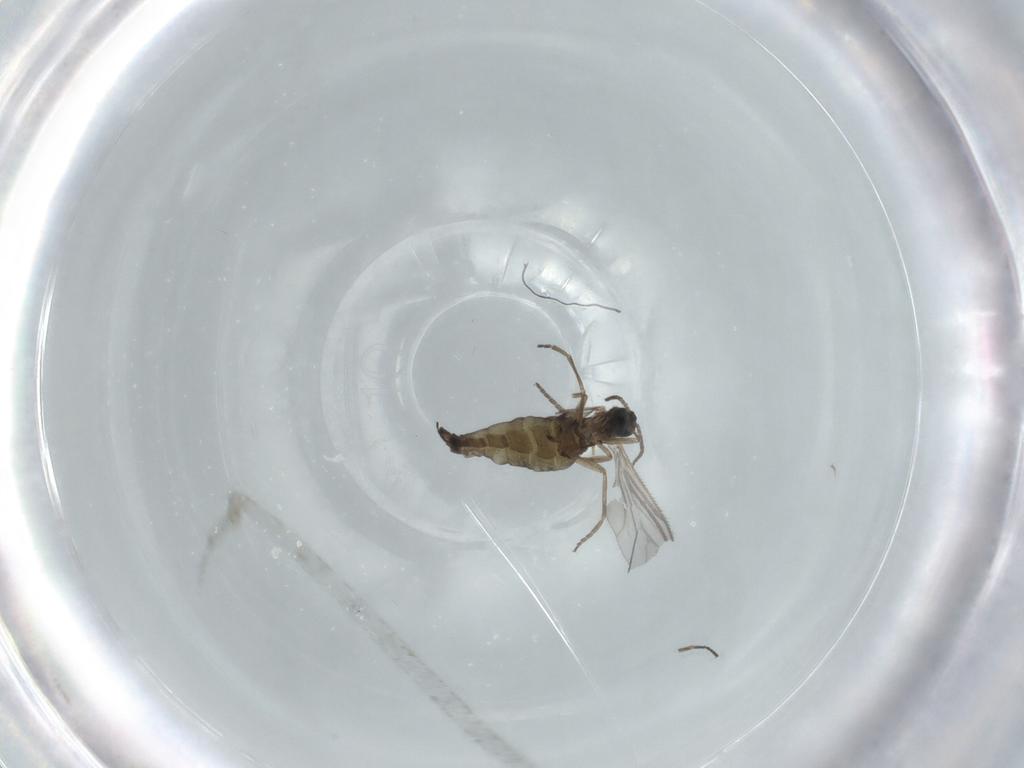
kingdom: Animalia
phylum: Arthropoda
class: Insecta
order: Diptera
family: Sciaridae
